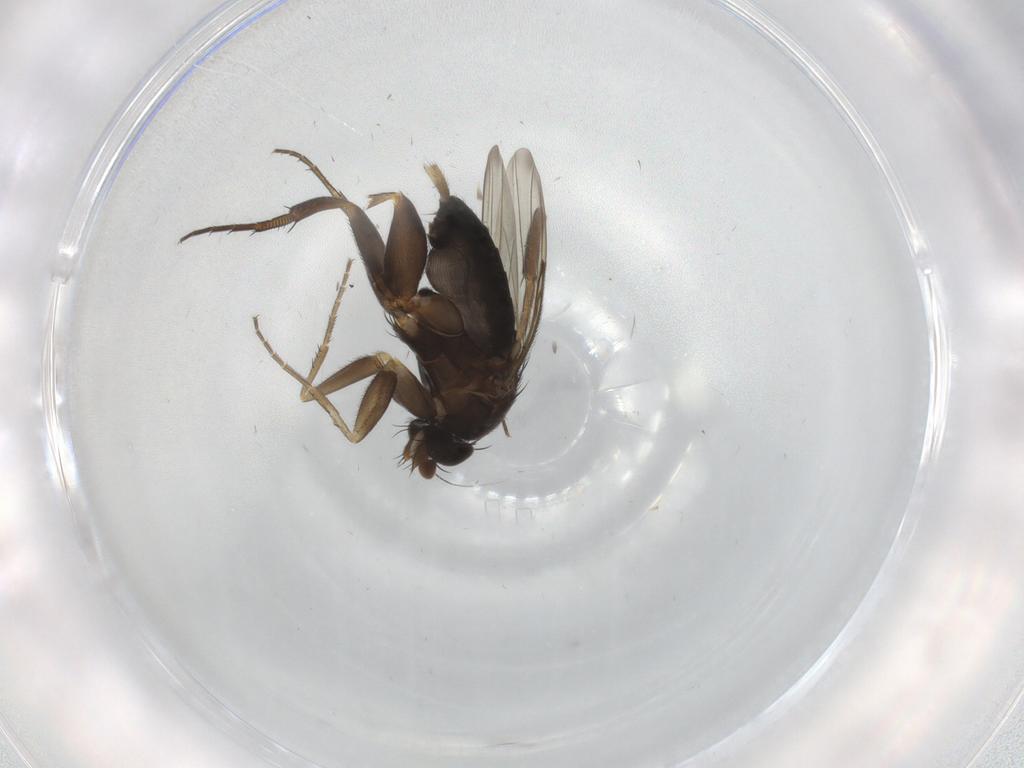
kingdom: Animalia
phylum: Arthropoda
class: Insecta
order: Diptera
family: Phoridae
